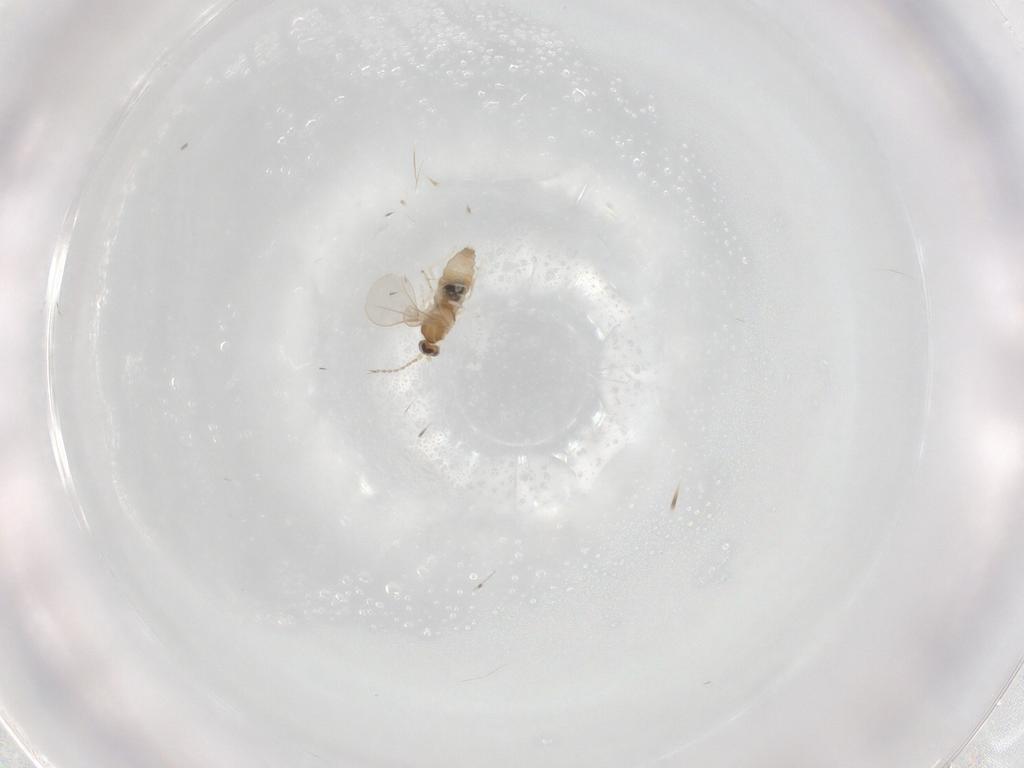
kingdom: Animalia
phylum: Arthropoda
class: Insecta
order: Diptera
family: Cecidomyiidae
